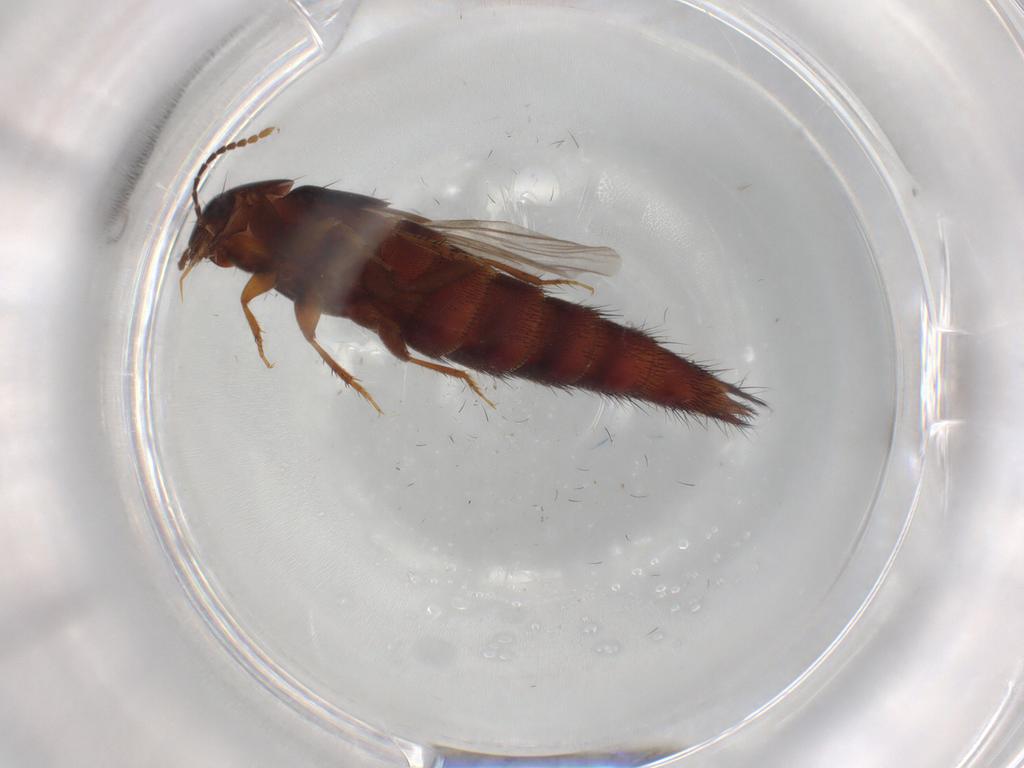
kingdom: Animalia
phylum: Arthropoda
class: Insecta
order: Coleoptera
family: Staphylinidae
